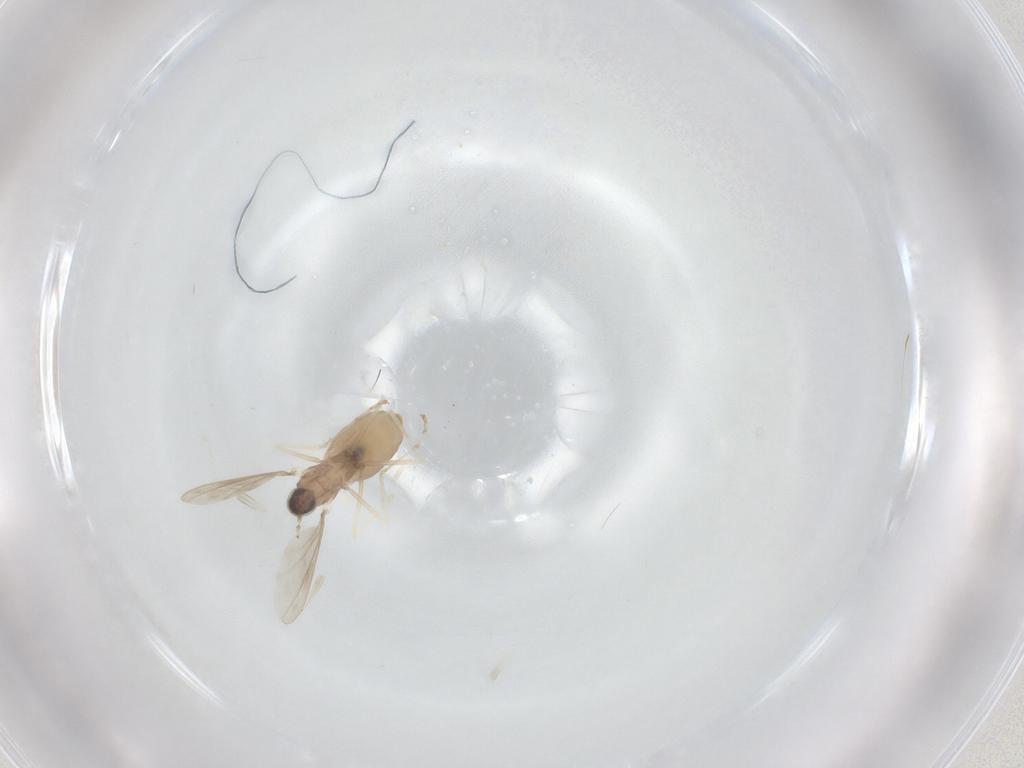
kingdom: Animalia
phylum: Arthropoda
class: Insecta
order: Diptera
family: Cecidomyiidae
